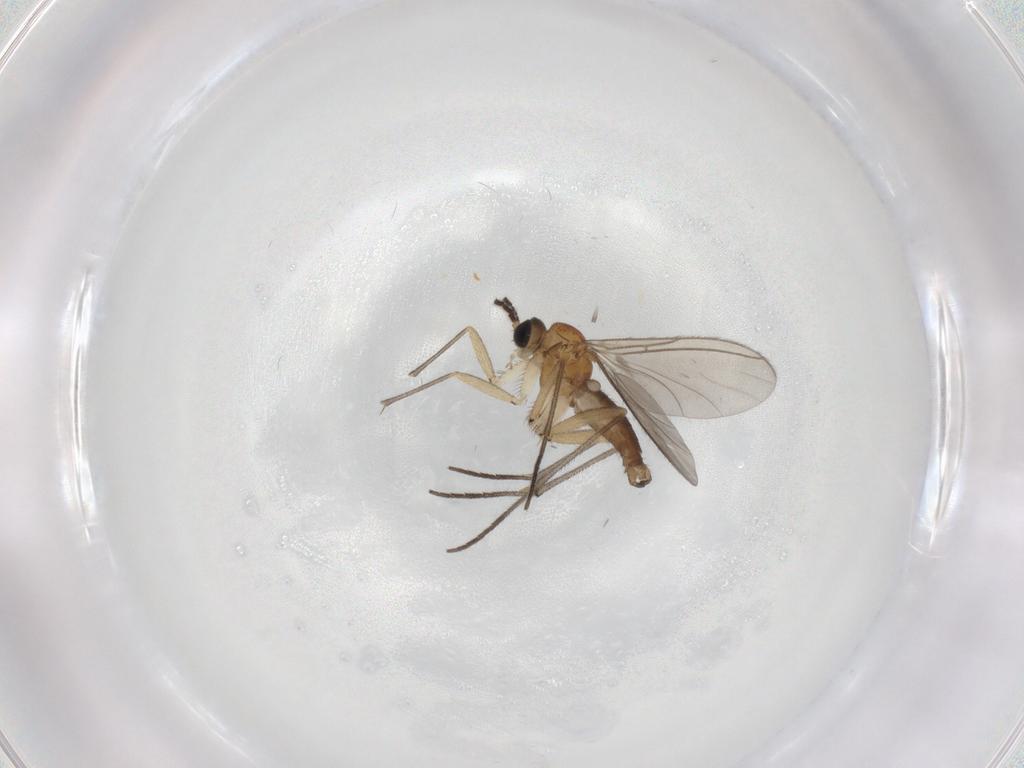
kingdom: Animalia
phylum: Arthropoda
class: Insecta
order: Diptera
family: Sciaridae
